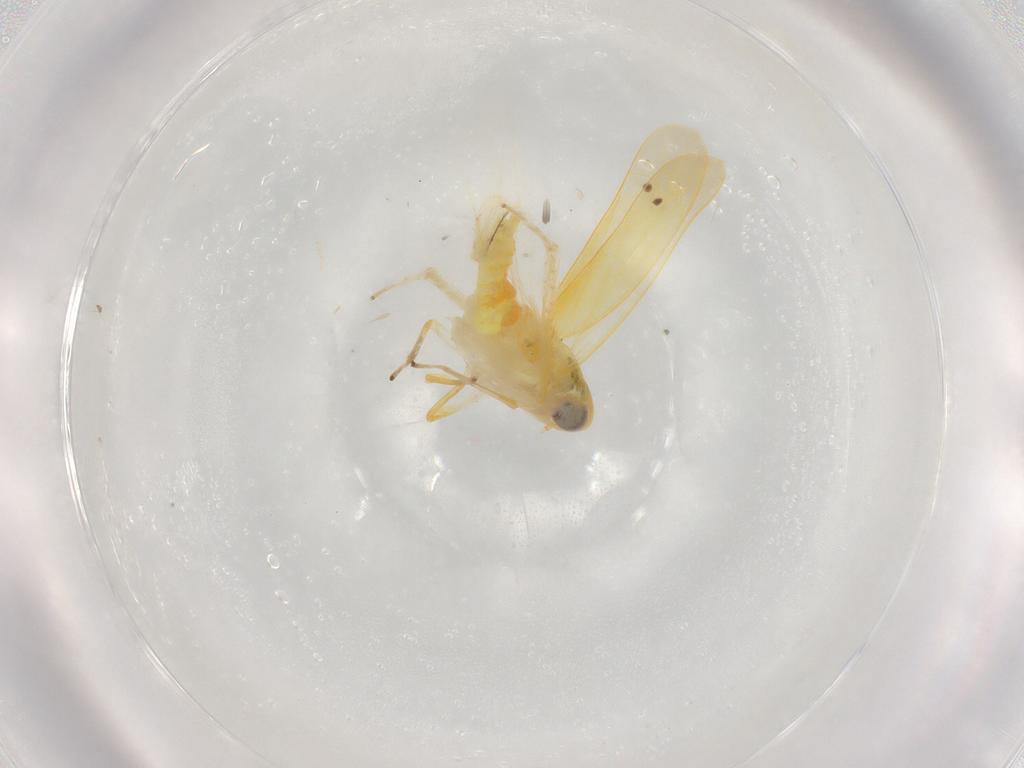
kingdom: Animalia
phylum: Arthropoda
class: Insecta
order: Hemiptera
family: Cicadellidae
